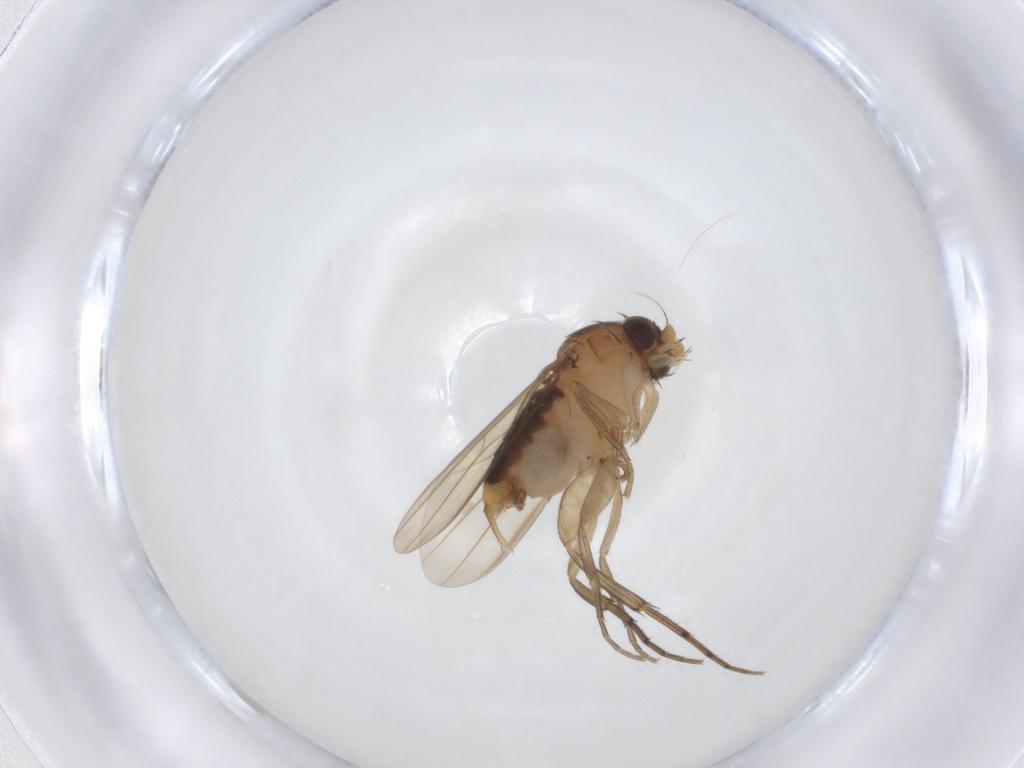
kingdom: Animalia
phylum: Arthropoda
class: Insecta
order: Diptera
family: Phoridae
